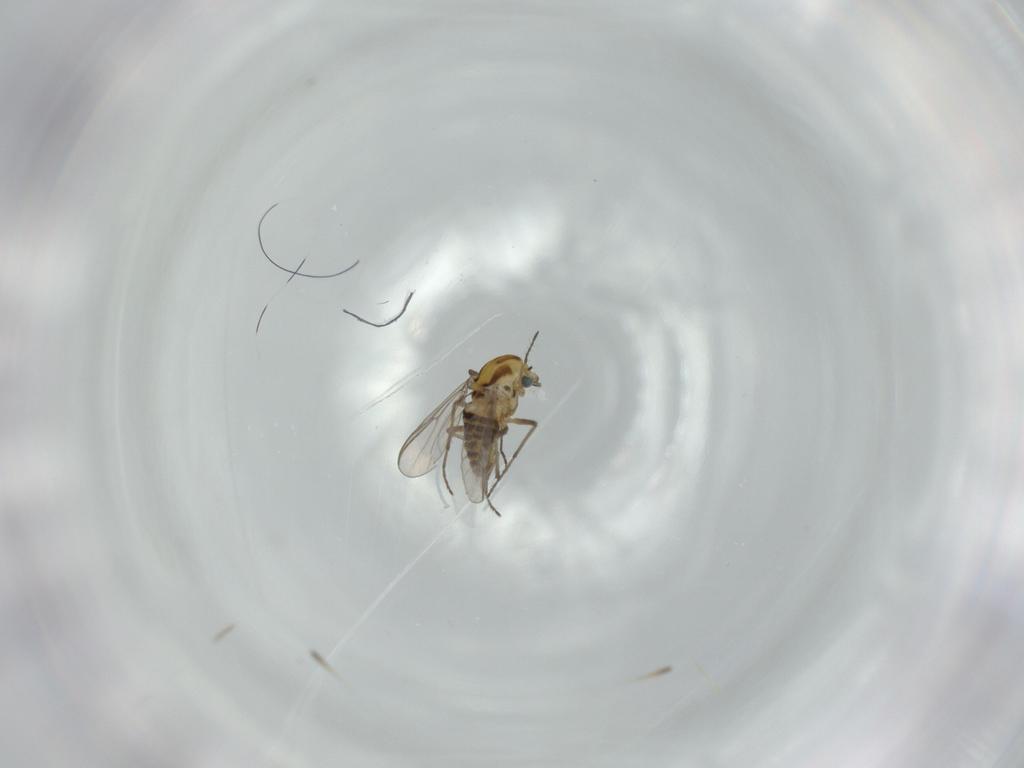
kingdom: Animalia
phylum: Arthropoda
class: Insecta
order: Diptera
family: Chironomidae
